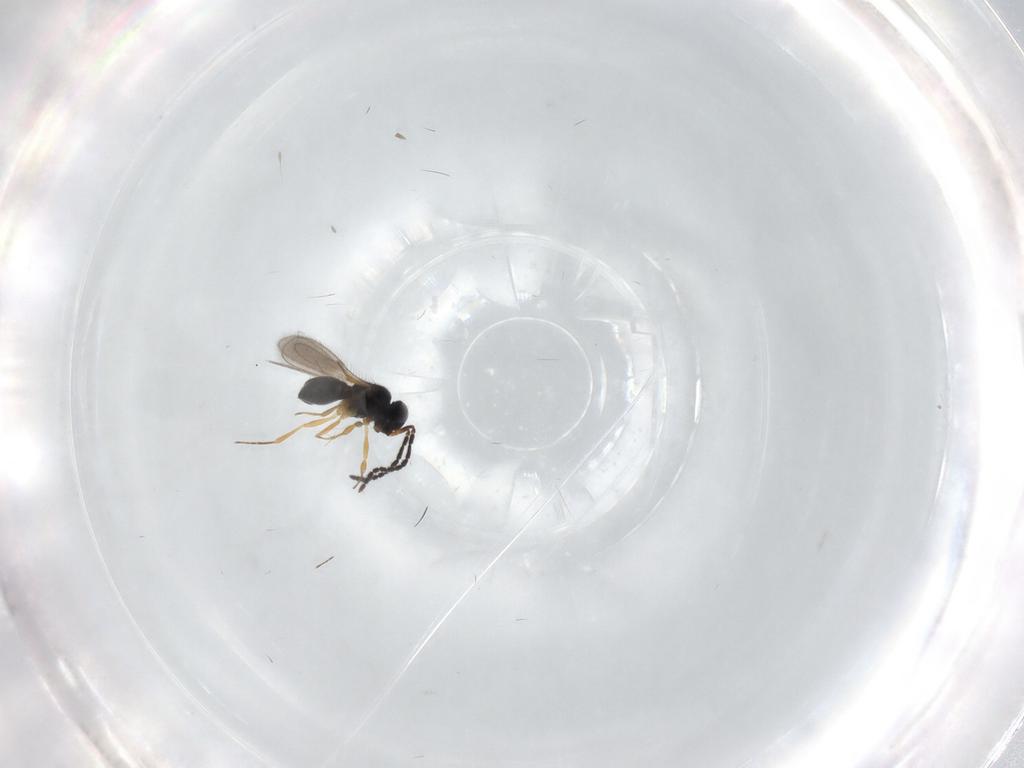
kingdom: Animalia
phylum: Arthropoda
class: Insecta
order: Hymenoptera
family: Scelionidae
